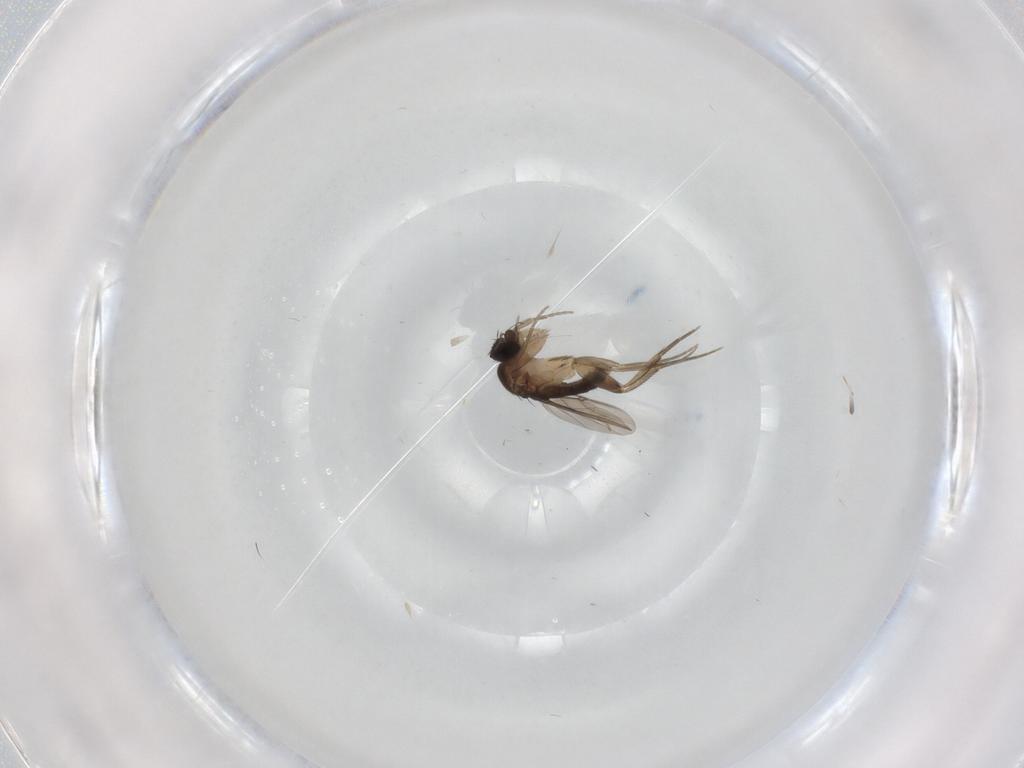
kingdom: Animalia
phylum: Arthropoda
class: Insecta
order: Diptera
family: Phoridae
